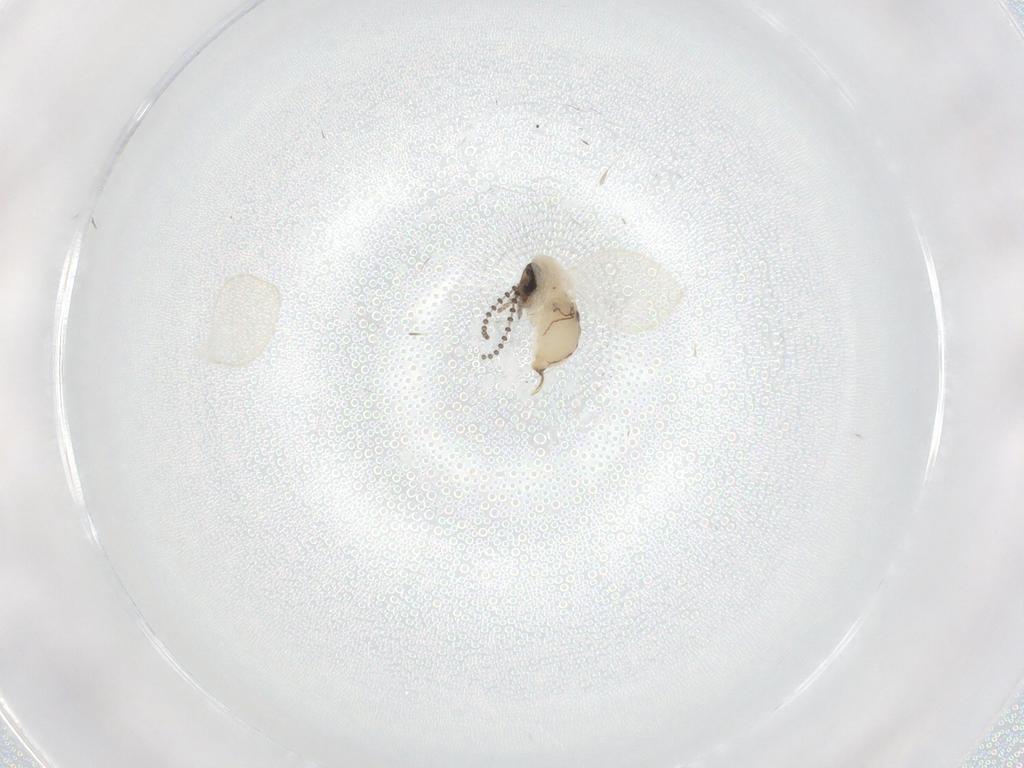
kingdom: Animalia
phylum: Arthropoda
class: Insecta
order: Diptera
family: Psychodidae
